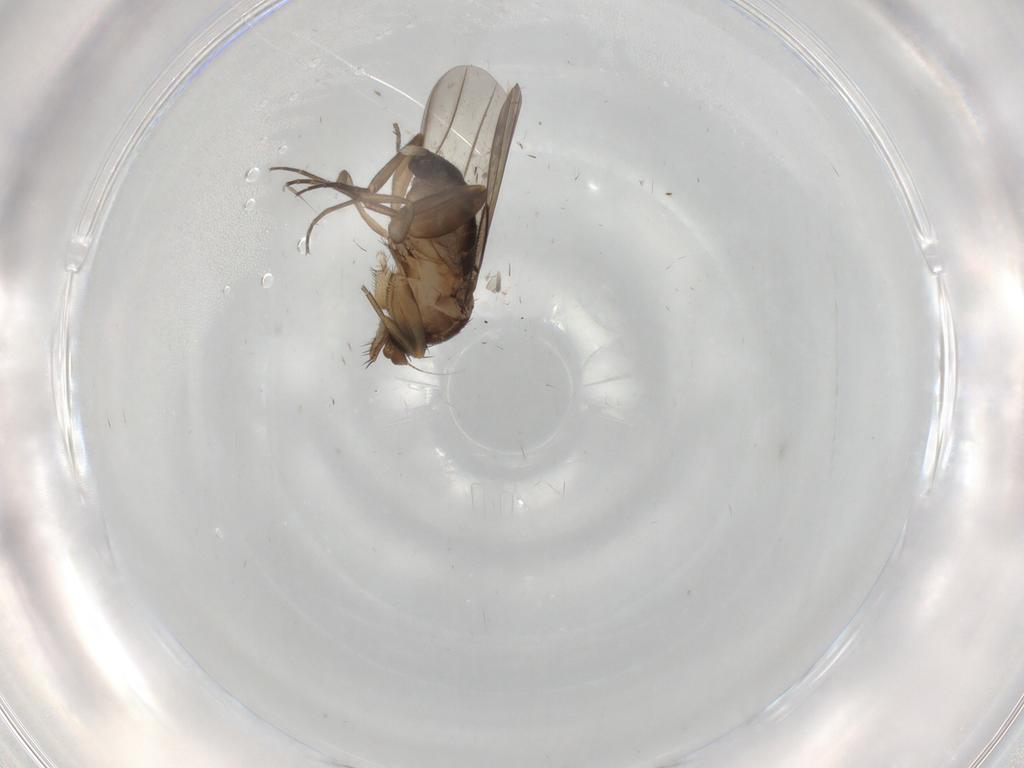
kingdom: Animalia
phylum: Arthropoda
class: Insecta
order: Diptera
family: Psychodidae
